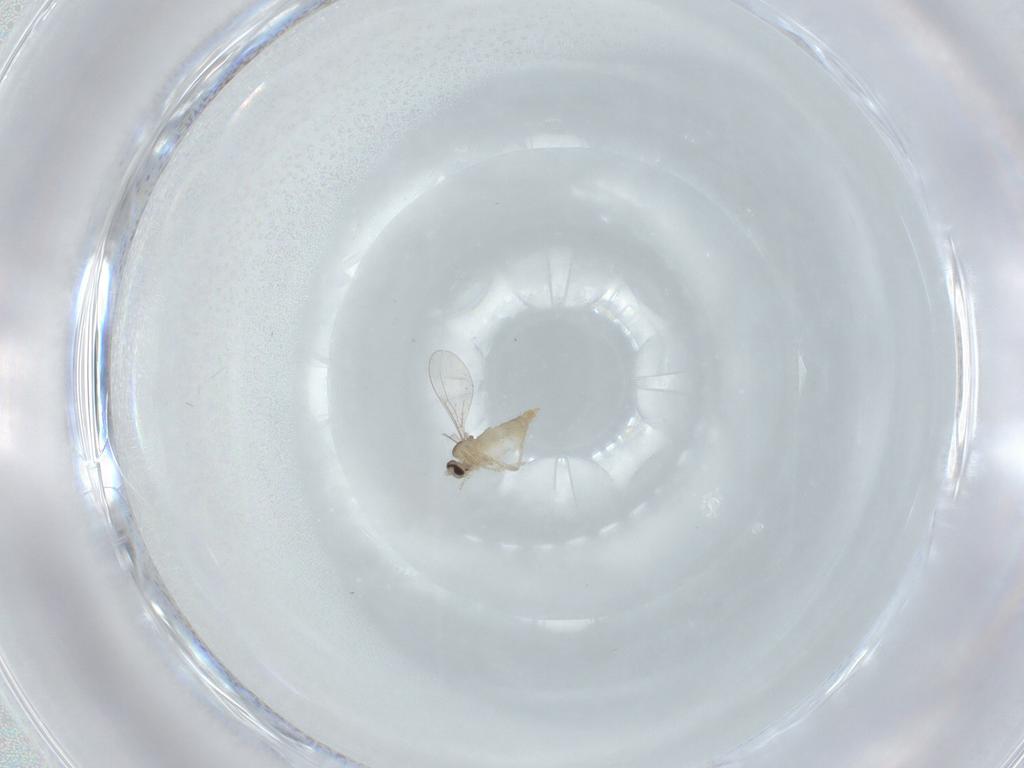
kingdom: Animalia
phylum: Arthropoda
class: Insecta
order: Diptera
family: Cecidomyiidae
